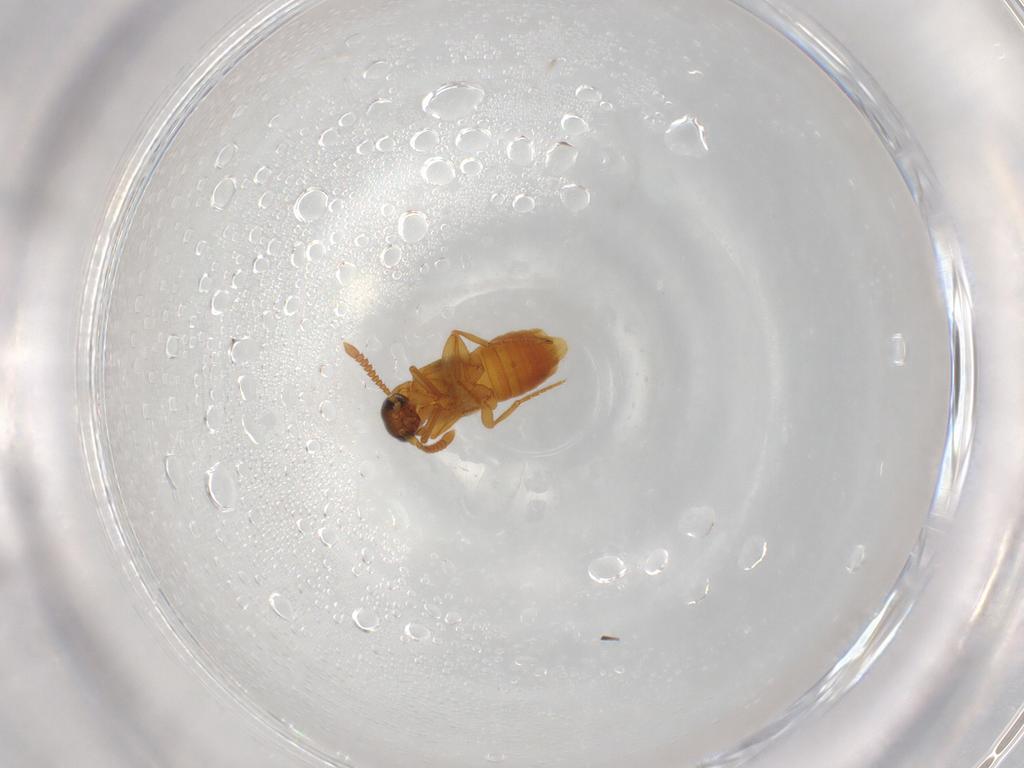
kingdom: Animalia
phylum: Arthropoda
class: Insecta
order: Coleoptera
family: Staphylinidae
